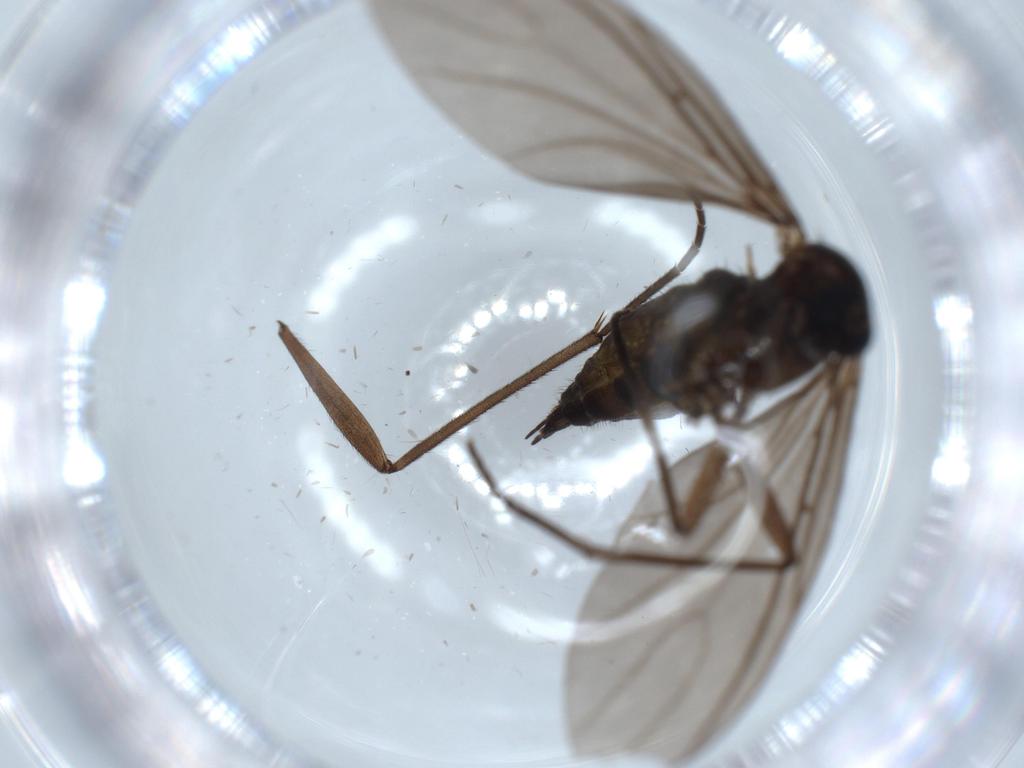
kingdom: Animalia
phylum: Arthropoda
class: Insecta
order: Diptera
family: Sciaridae
